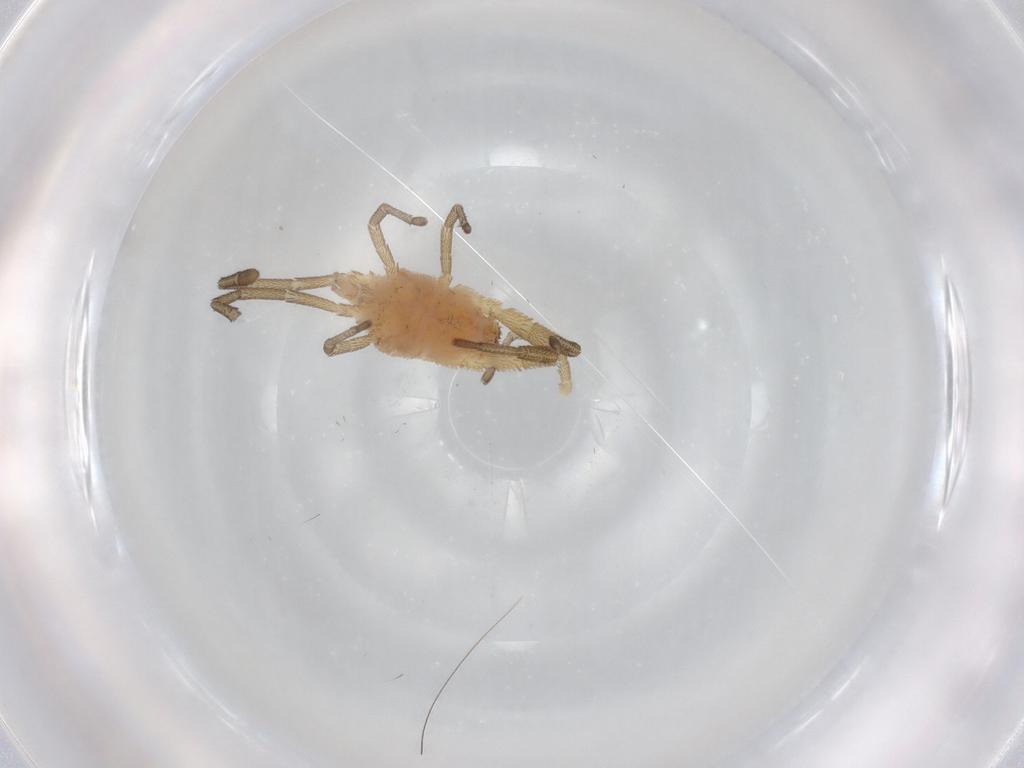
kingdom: Animalia
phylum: Arthropoda
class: Arachnida
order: Trombidiformes
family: Smarididae
